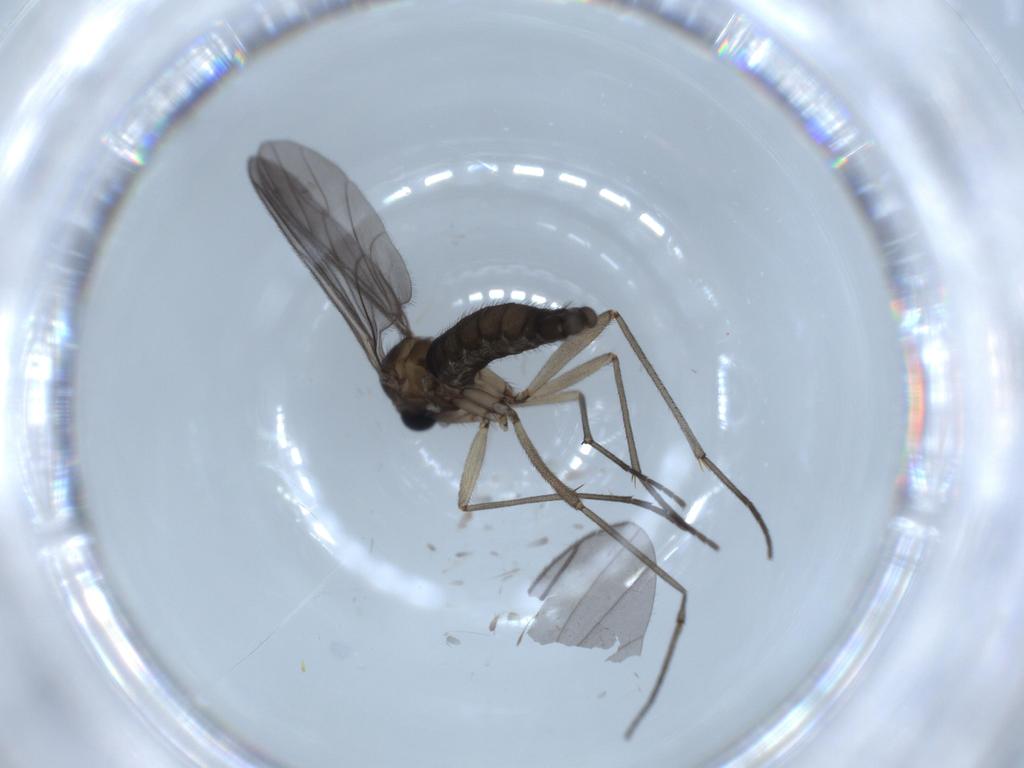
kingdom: Animalia
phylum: Arthropoda
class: Insecta
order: Diptera
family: Sciaridae
